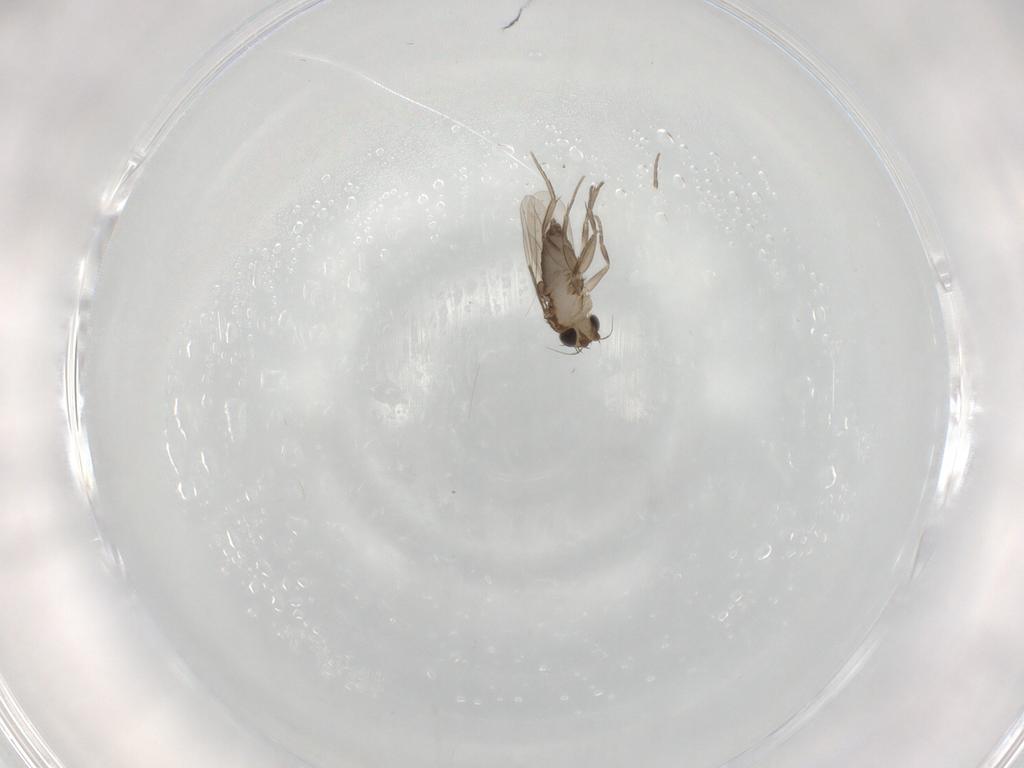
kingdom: Animalia
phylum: Arthropoda
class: Insecta
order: Diptera
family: Phoridae
